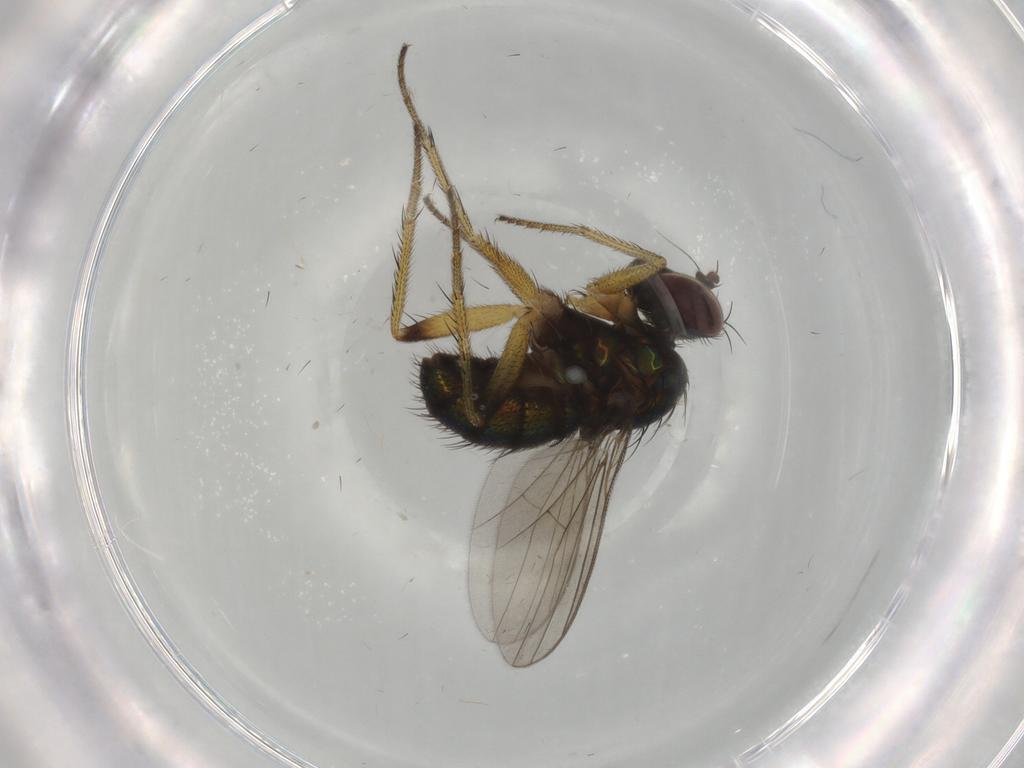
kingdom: Animalia
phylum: Arthropoda
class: Insecta
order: Diptera
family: Dolichopodidae
